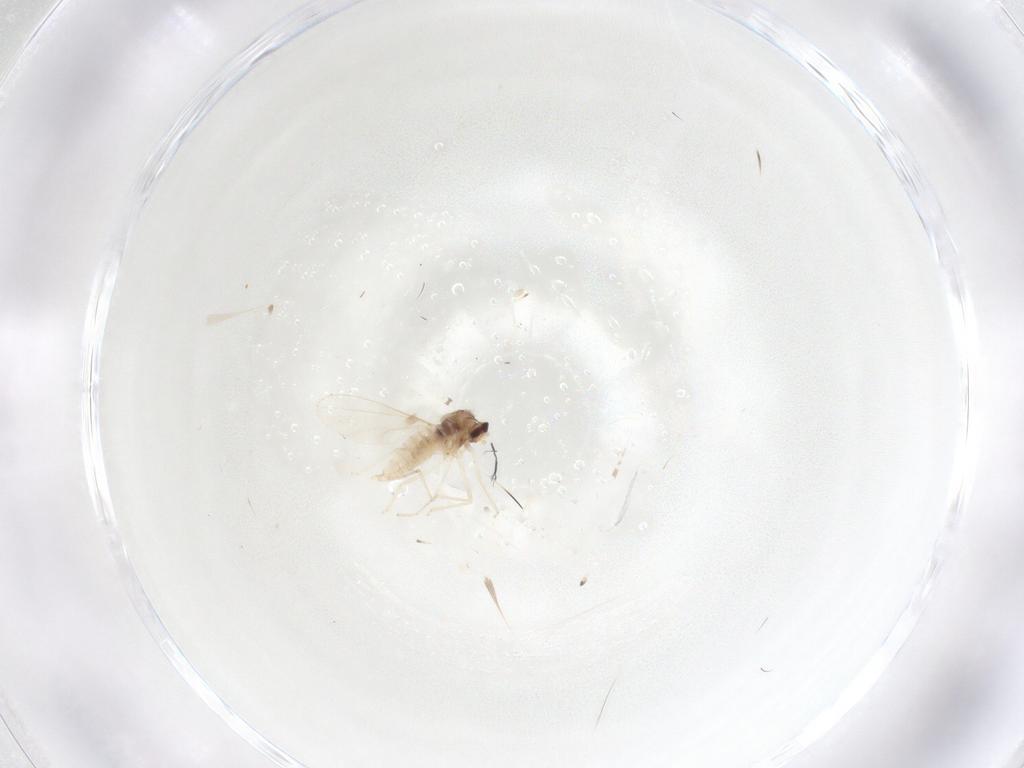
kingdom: Animalia
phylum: Arthropoda
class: Insecta
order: Diptera
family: Cecidomyiidae
